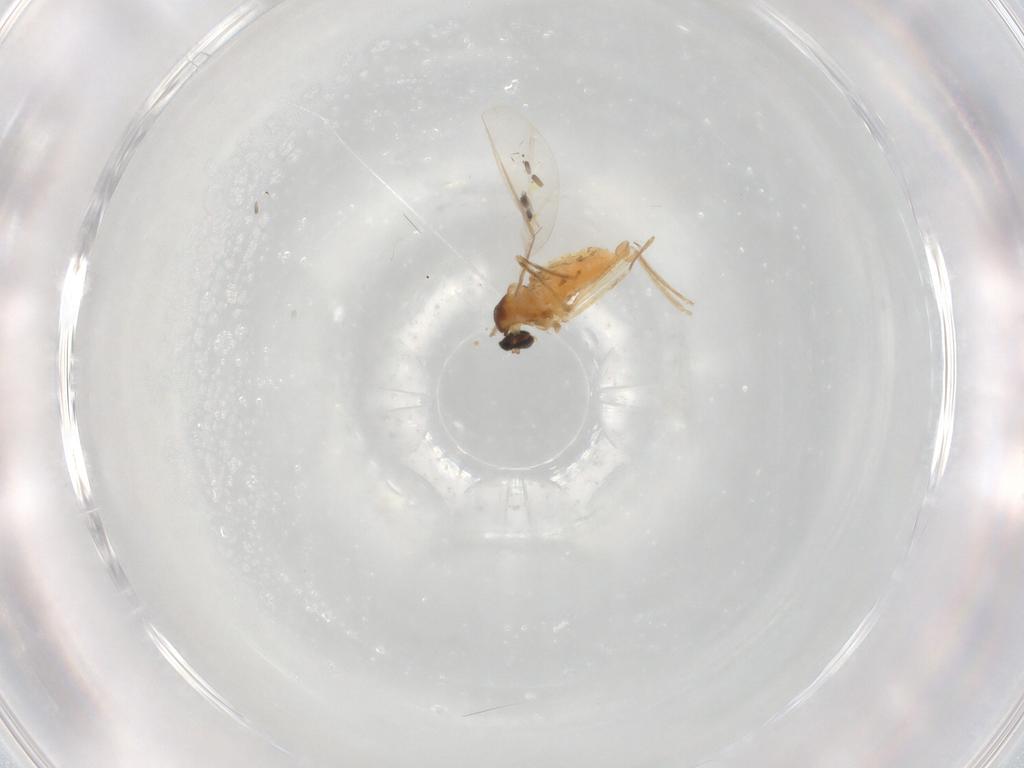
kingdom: Animalia
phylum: Arthropoda
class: Insecta
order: Diptera
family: Cecidomyiidae
